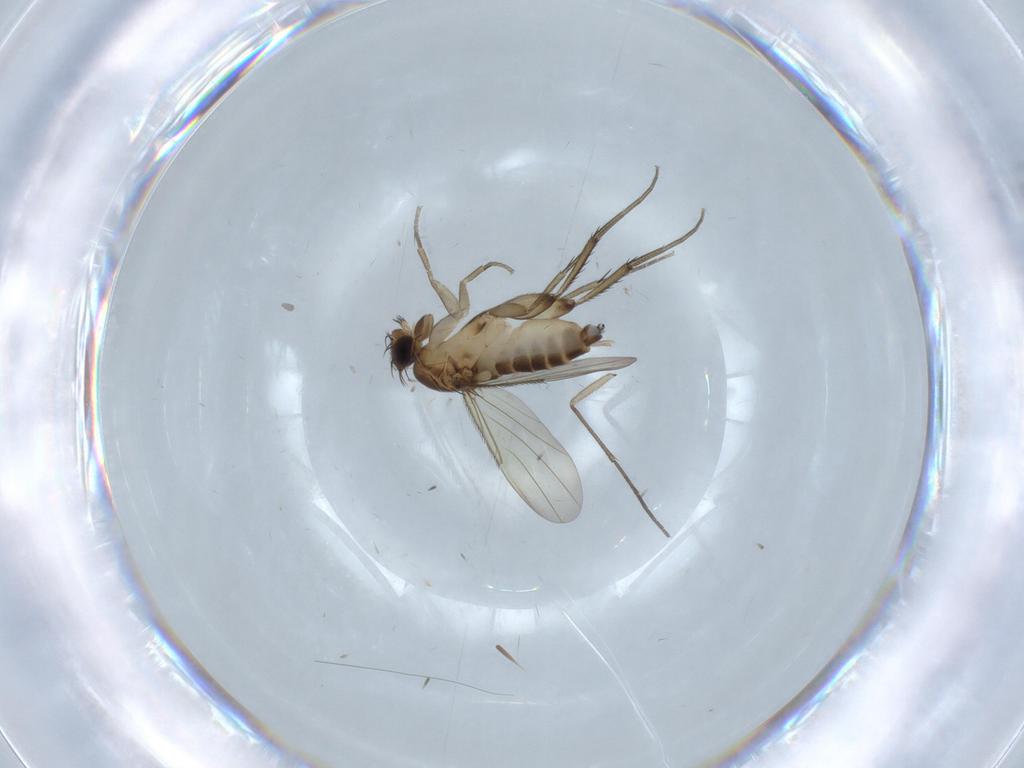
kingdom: Animalia
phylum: Arthropoda
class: Insecta
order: Diptera
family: Phoridae
